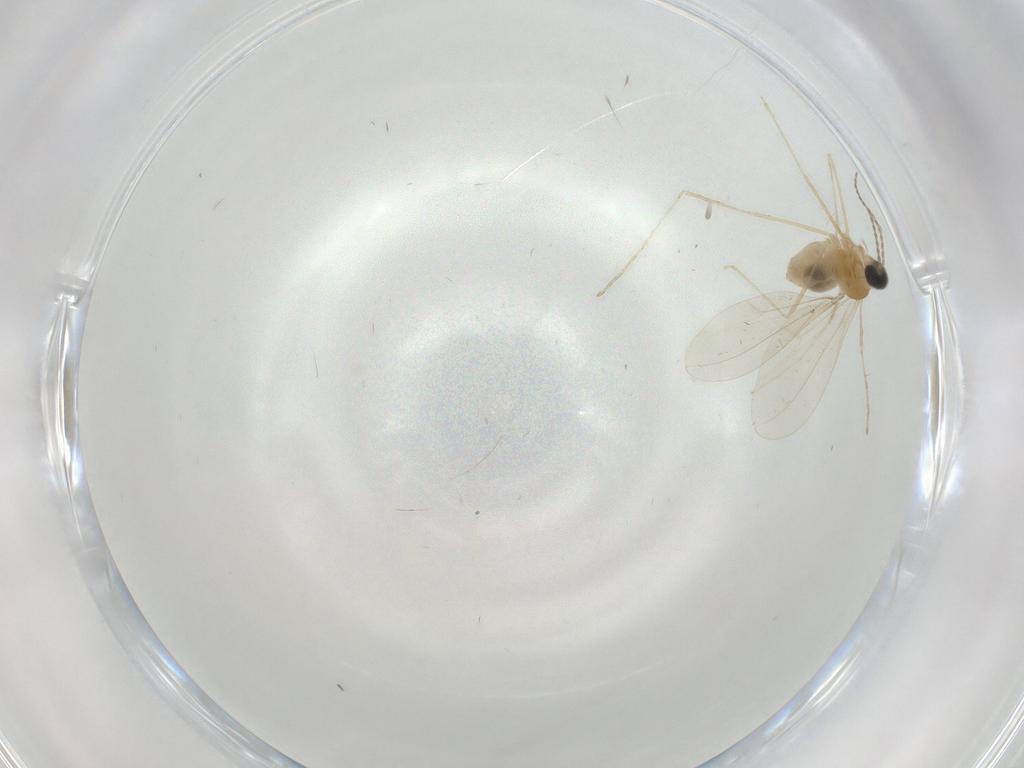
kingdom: Animalia
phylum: Arthropoda
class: Insecta
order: Diptera
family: Cecidomyiidae
